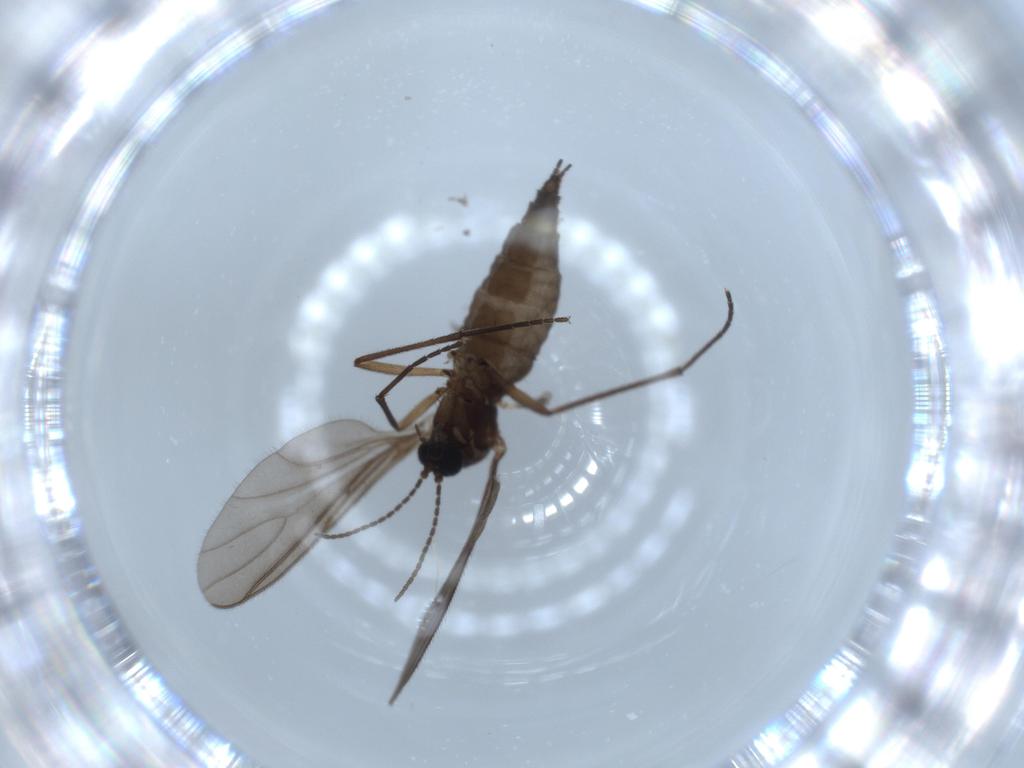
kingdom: Animalia
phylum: Arthropoda
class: Insecta
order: Diptera
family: Sciaridae
